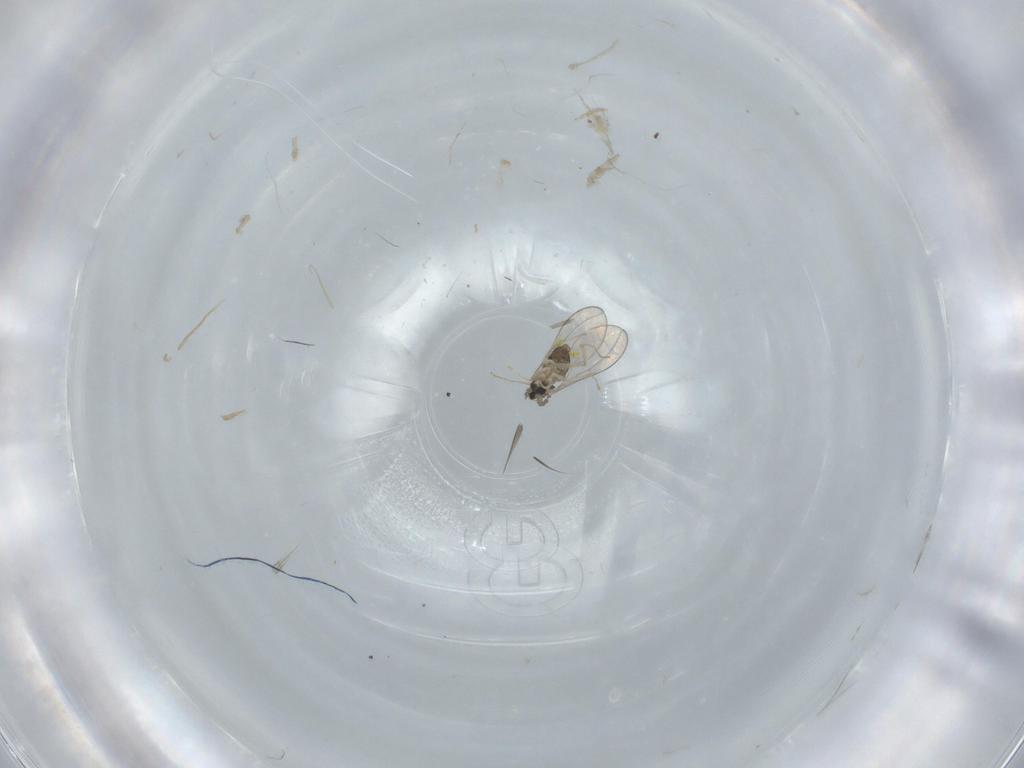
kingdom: Animalia
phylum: Arthropoda
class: Insecta
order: Diptera
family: Cecidomyiidae
